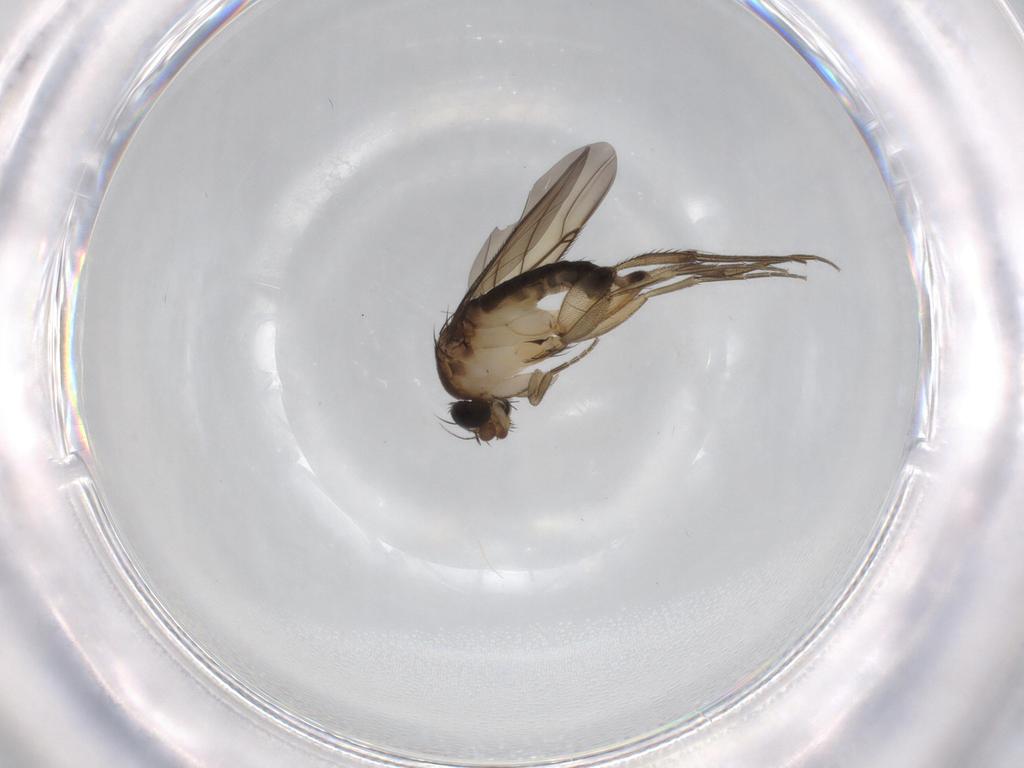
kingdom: Animalia
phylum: Arthropoda
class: Insecta
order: Diptera
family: Phoridae
